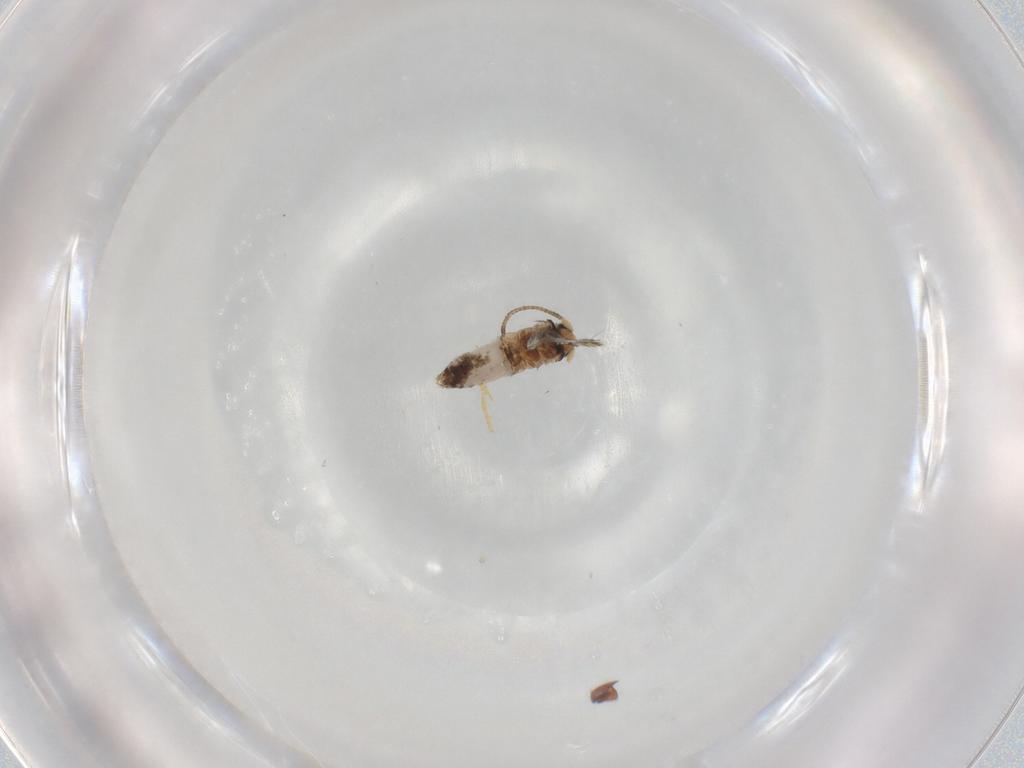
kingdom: Animalia
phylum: Arthropoda
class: Insecta
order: Lepidoptera
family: Nepticulidae
